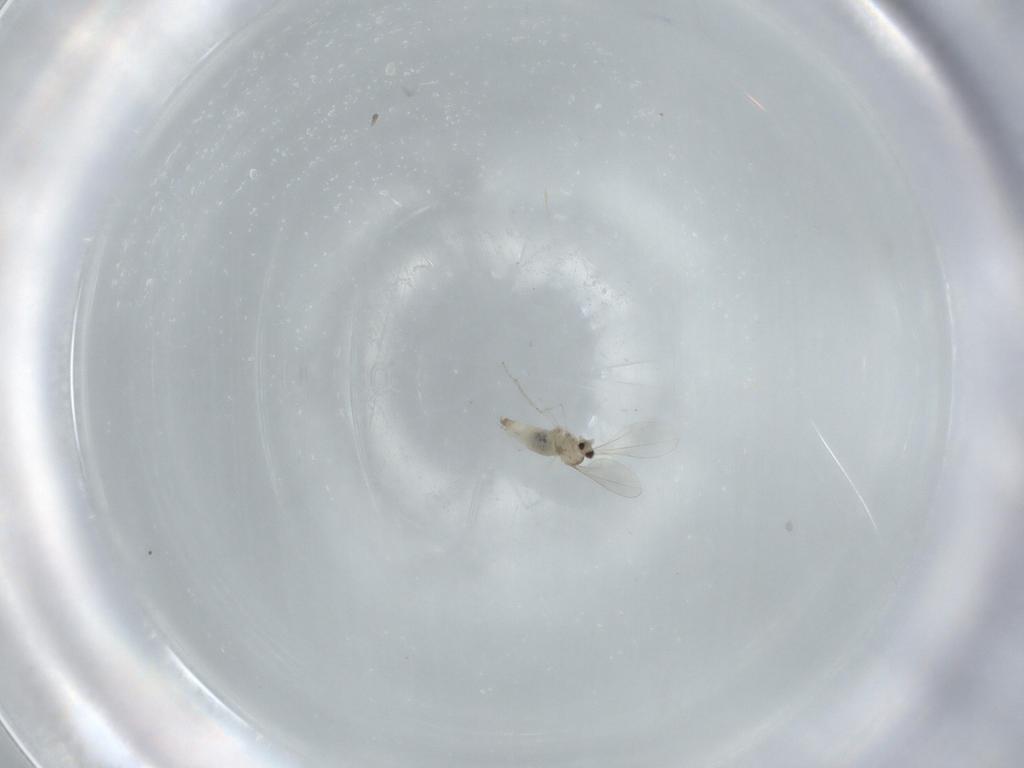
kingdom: Animalia
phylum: Arthropoda
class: Insecta
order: Diptera
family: Cecidomyiidae
